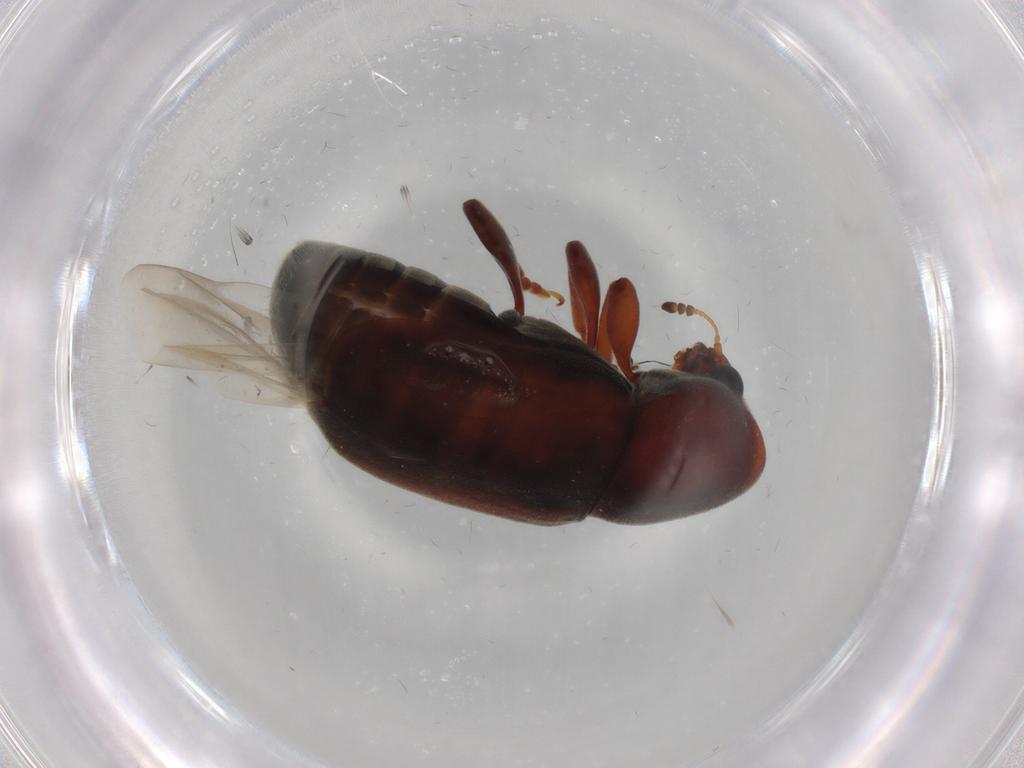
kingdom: Animalia
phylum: Arthropoda
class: Insecta
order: Coleoptera
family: Anthribidae
